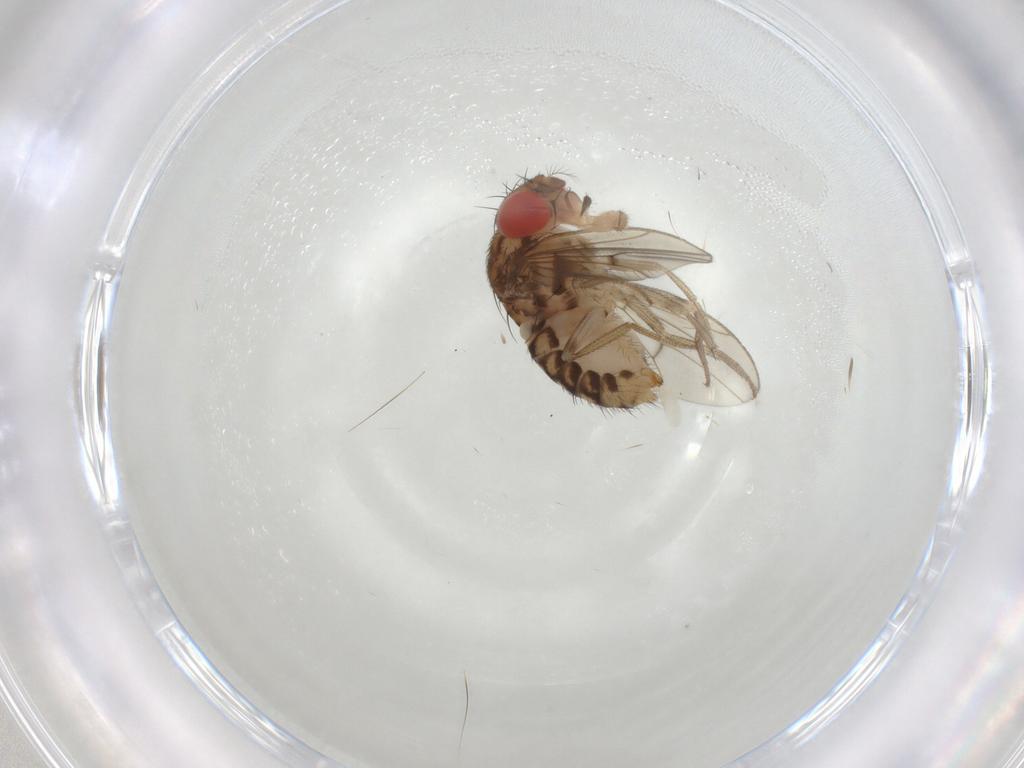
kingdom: Animalia
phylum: Arthropoda
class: Insecta
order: Diptera
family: Drosophilidae
